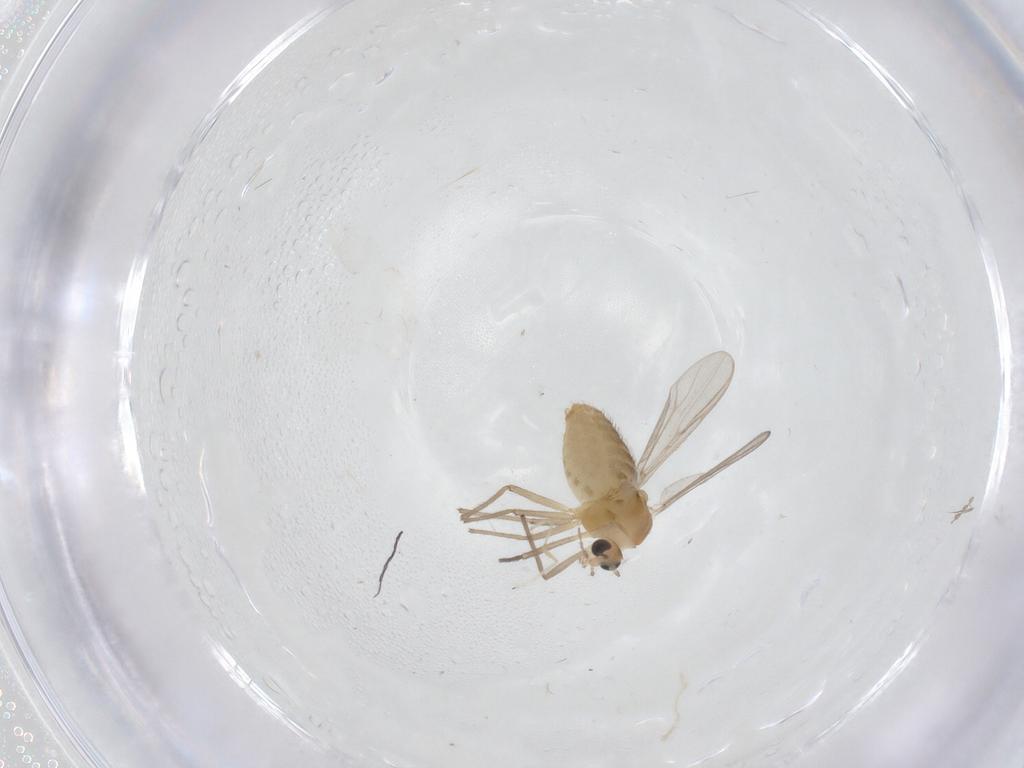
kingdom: Animalia
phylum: Arthropoda
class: Insecta
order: Diptera
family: Chironomidae
